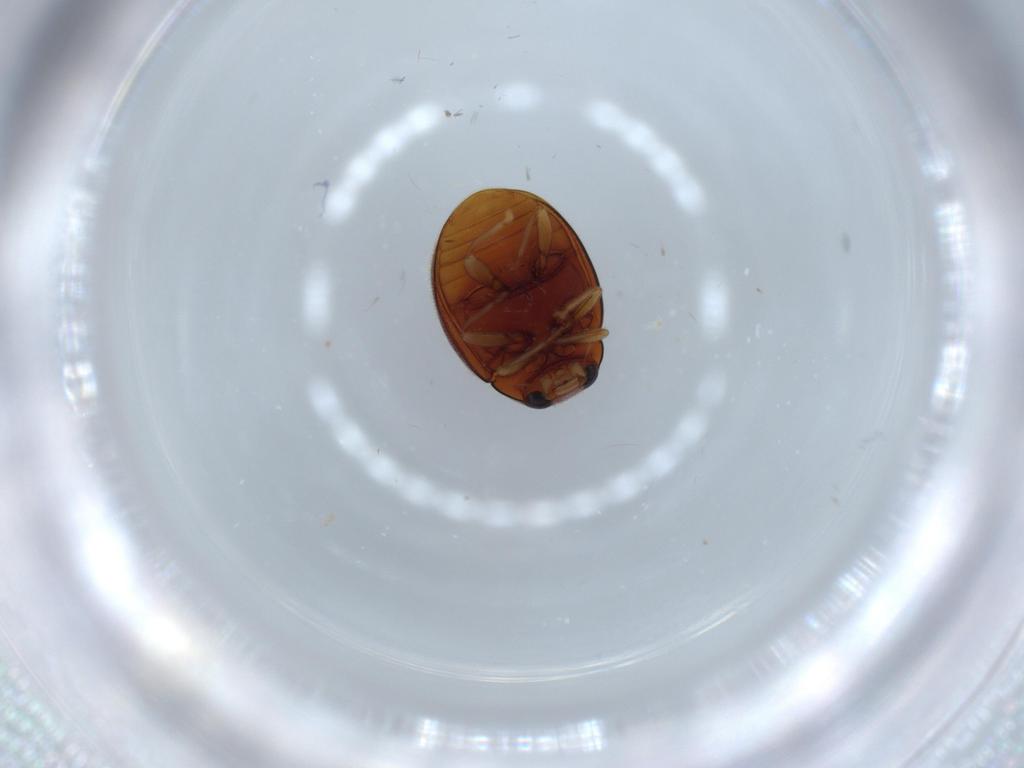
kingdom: Animalia
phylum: Arthropoda
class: Insecta
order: Coleoptera
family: Coccinellidae
